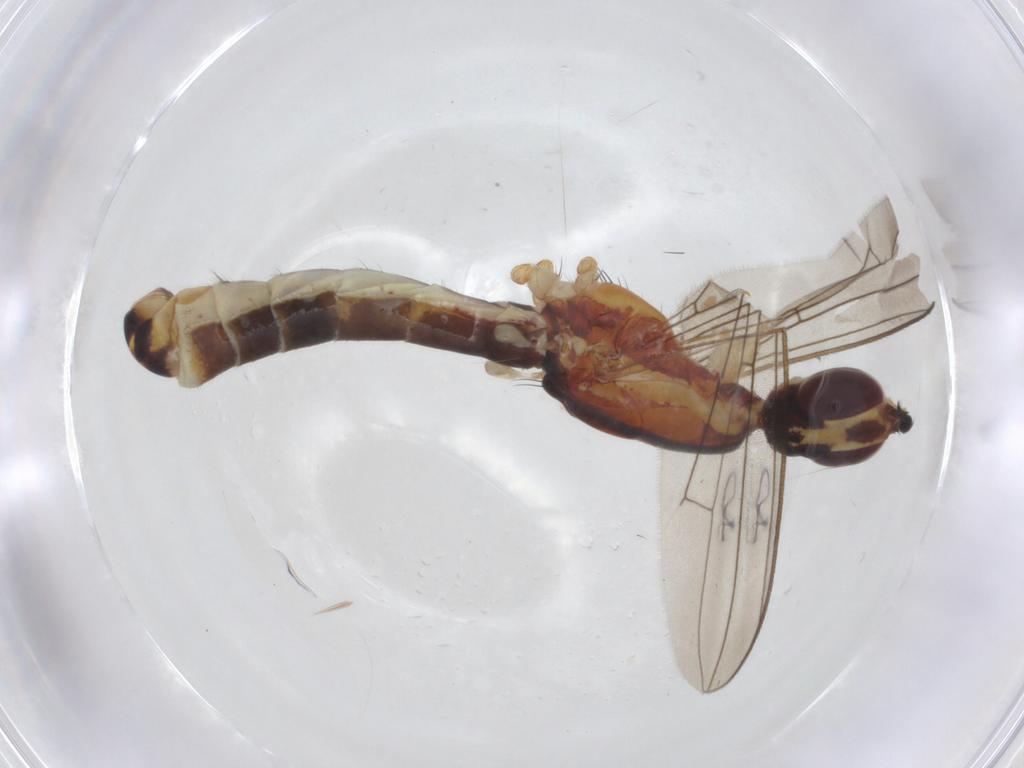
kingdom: Animalia
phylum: Arthropoda
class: Insecta
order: Diptera
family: Micropezidae
